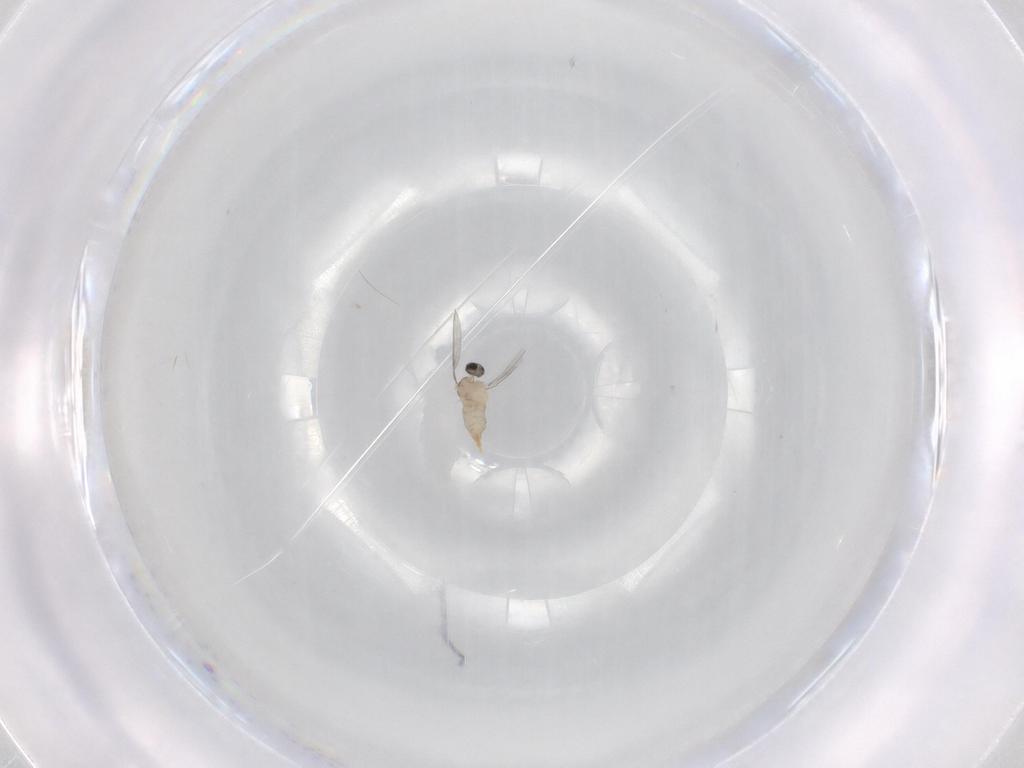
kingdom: Animalia
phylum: Arthropoda
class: Insecta
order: Diptera
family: Cecidomyiidae
